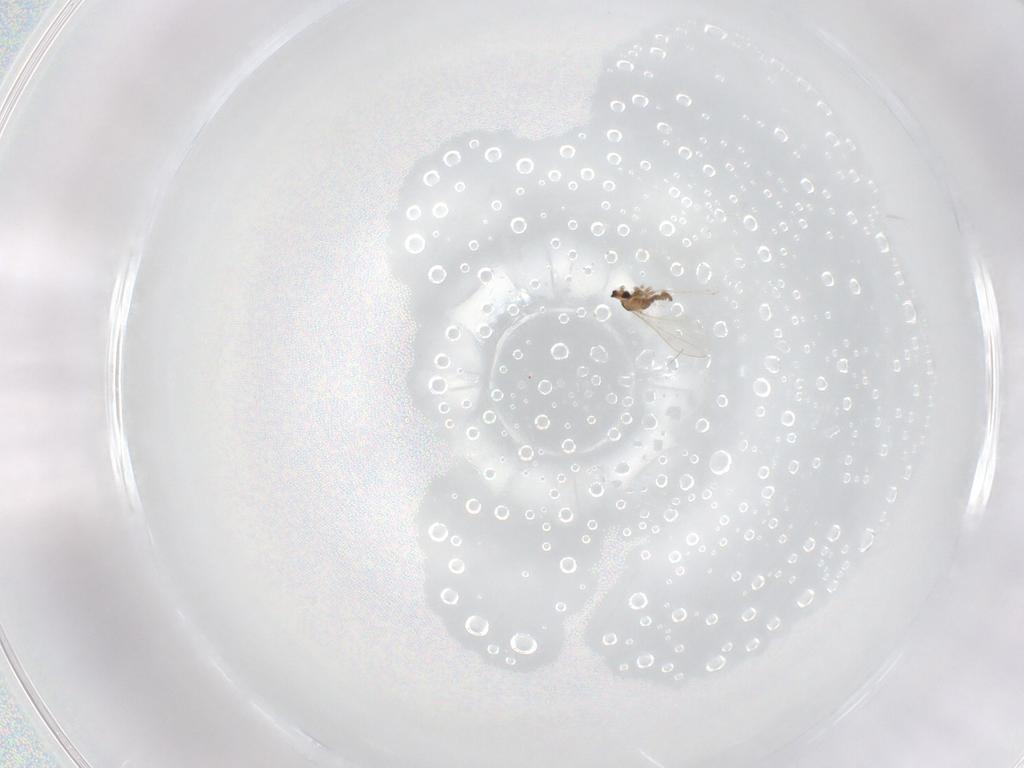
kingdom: Animalia
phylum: Arthropoda
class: Insecta
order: Diptera
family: Cecidomyiidae
